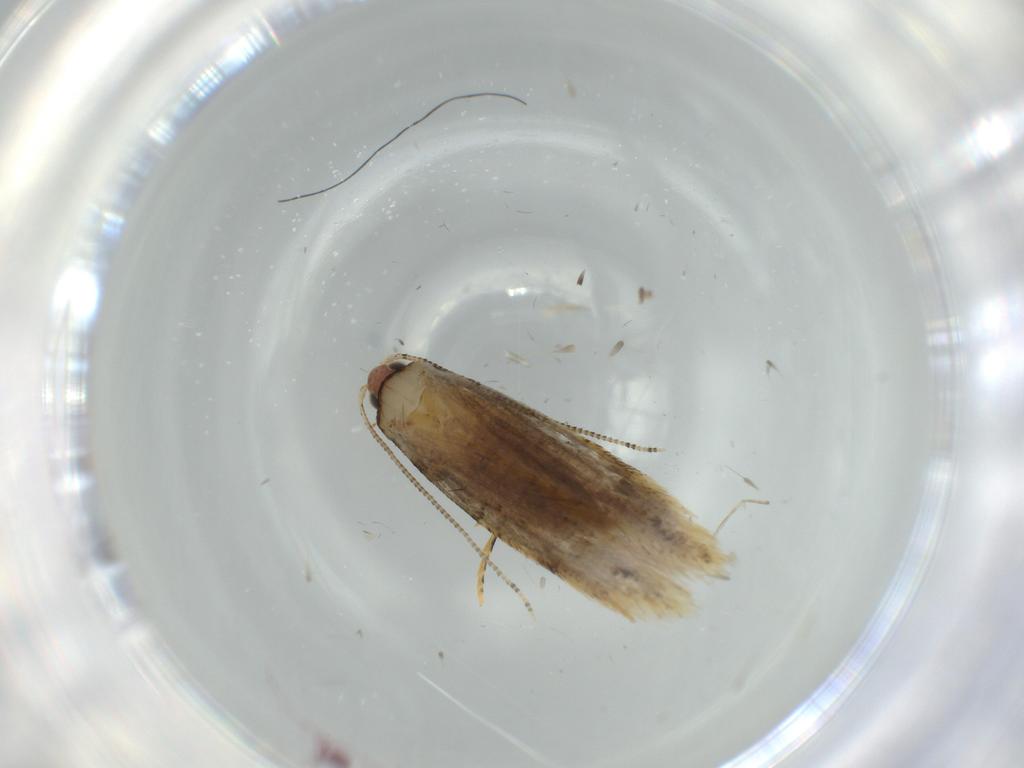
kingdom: Animalia
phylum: Arthropoda
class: Insecta
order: Lepidoptera
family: Tineidae
